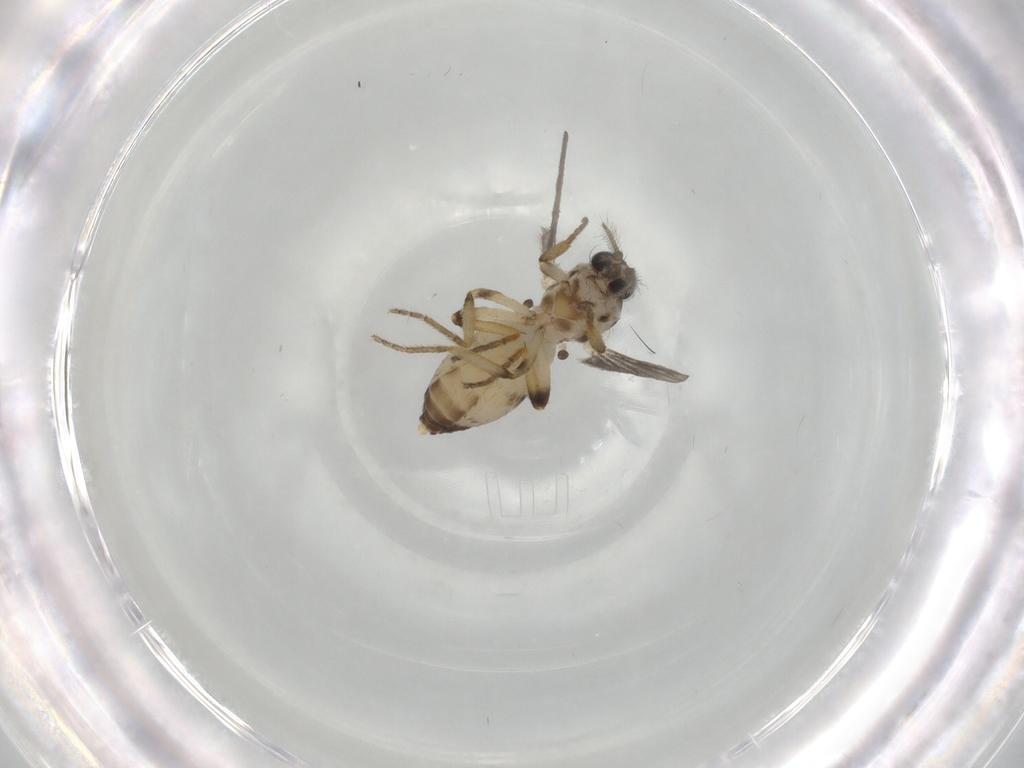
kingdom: Animalia
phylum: Arthropoda
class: Insecta
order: Diptera
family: Ceratopogonidae
